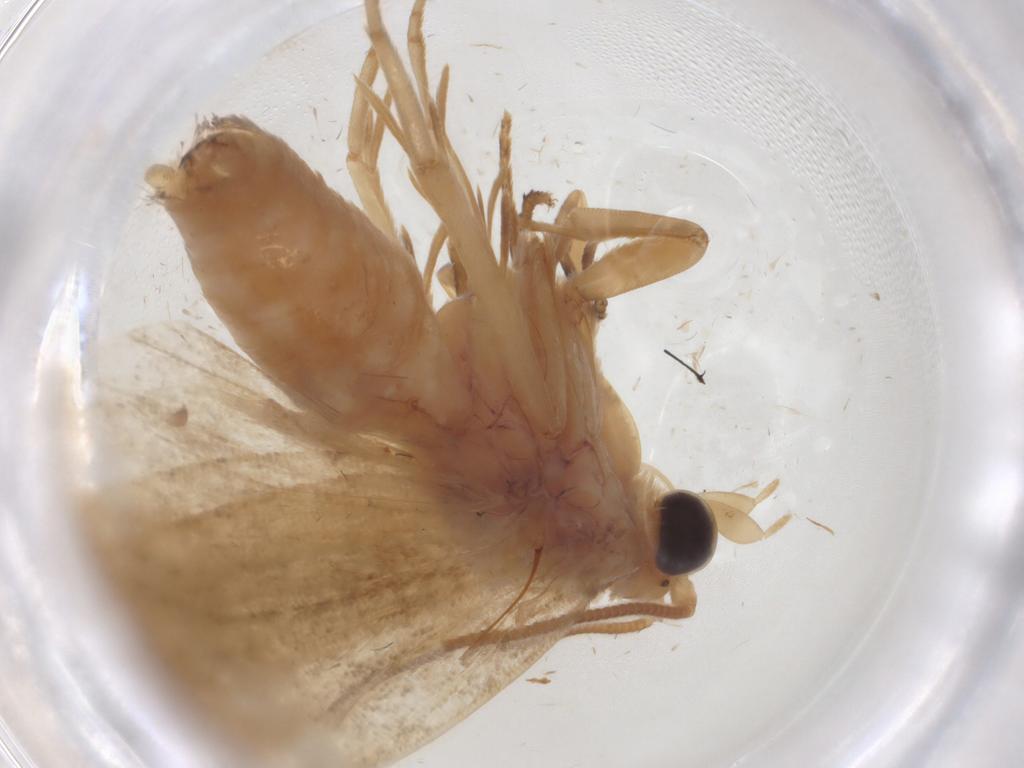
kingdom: Animalia
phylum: Arthropoda
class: Insecta
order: Lepidoptera
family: Tortricidae
